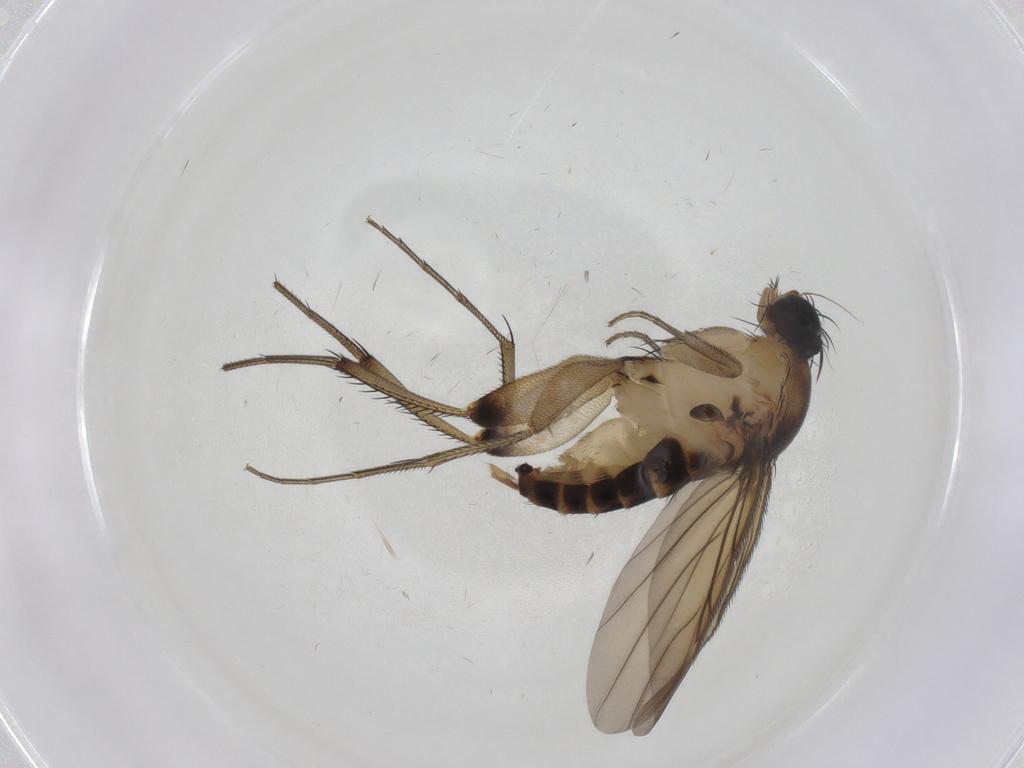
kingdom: Animalia
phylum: Arthropoda
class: Insecta
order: Diptera
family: Phoridae
